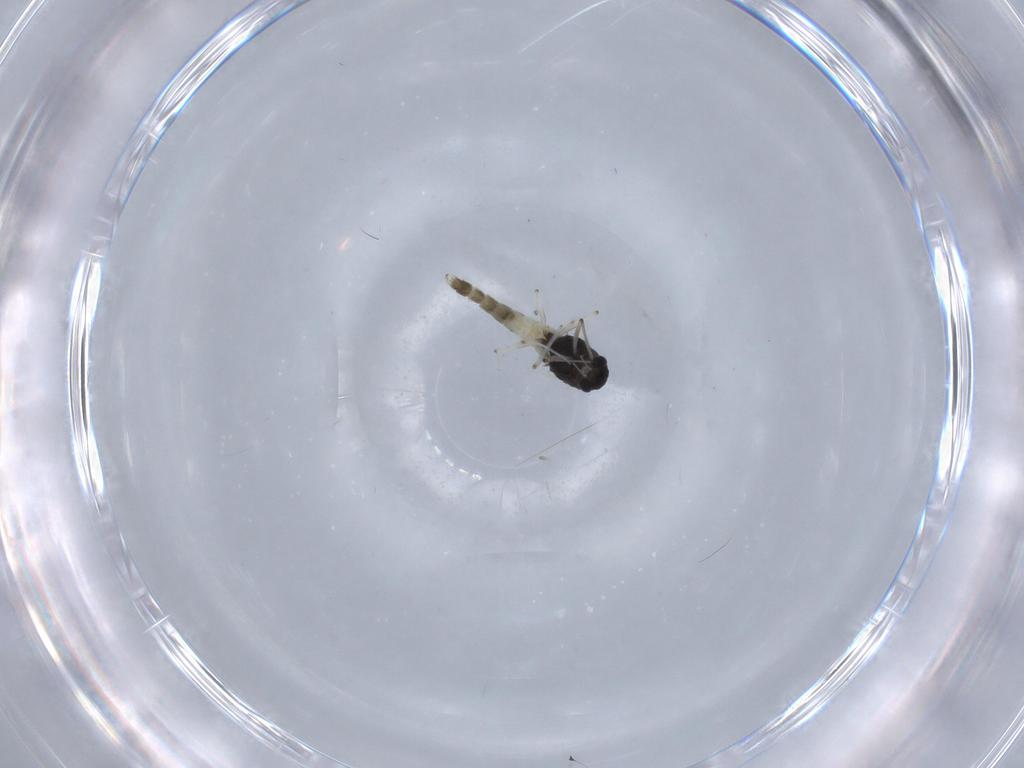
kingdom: Animalia
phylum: Arthropoda
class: Insecta
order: Diptera
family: Chironomidae
